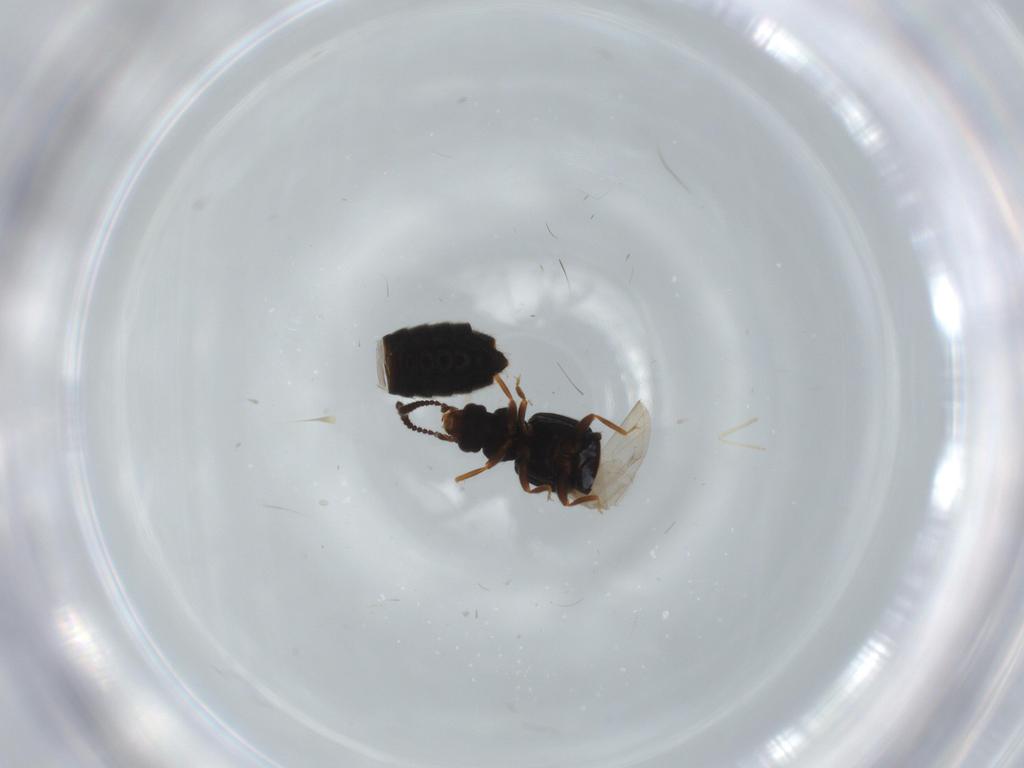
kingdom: Animalia
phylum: Arthropoda
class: Insecta
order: Coleoptera
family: Staphylinidae
